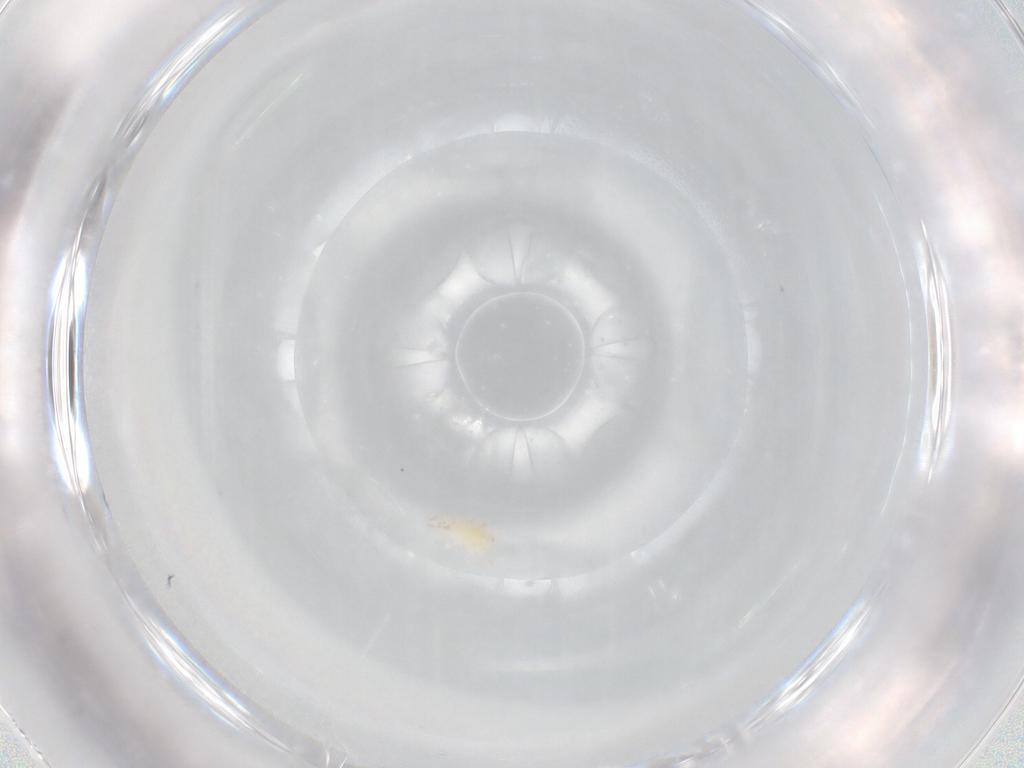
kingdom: Animalia
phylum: Arthropoda
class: Arachnida
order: Trombidiformes
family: Stigmaeidae
